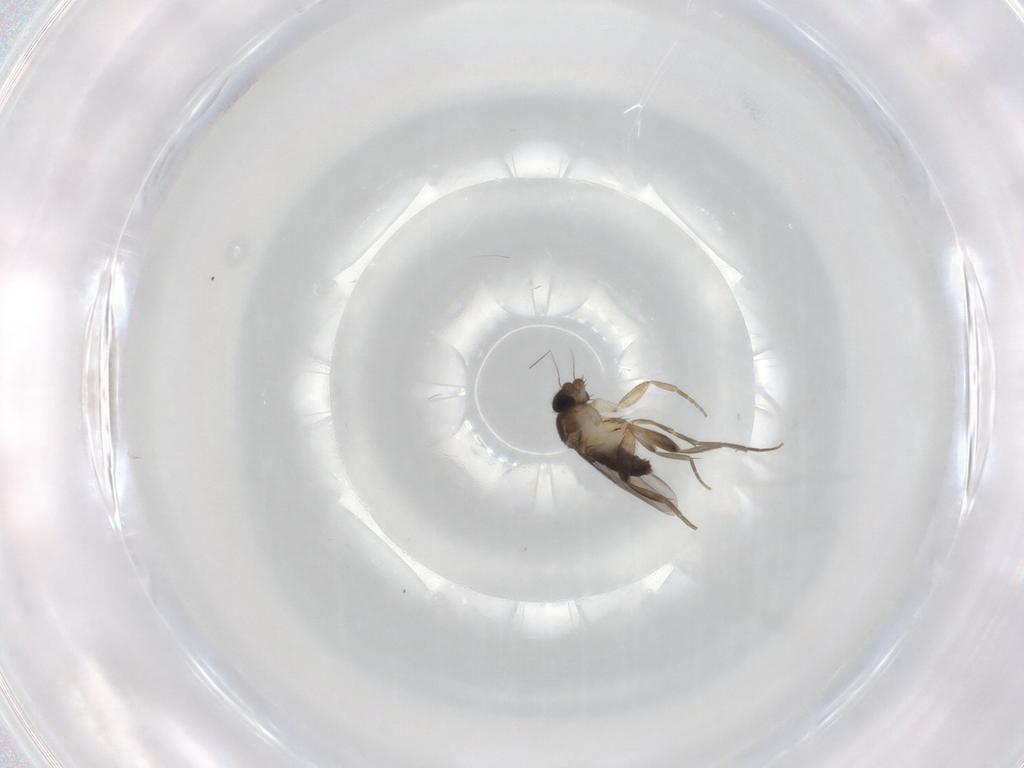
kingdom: Animalia
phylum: Arthropoda
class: Insecta
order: Diptera
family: Phoridae
